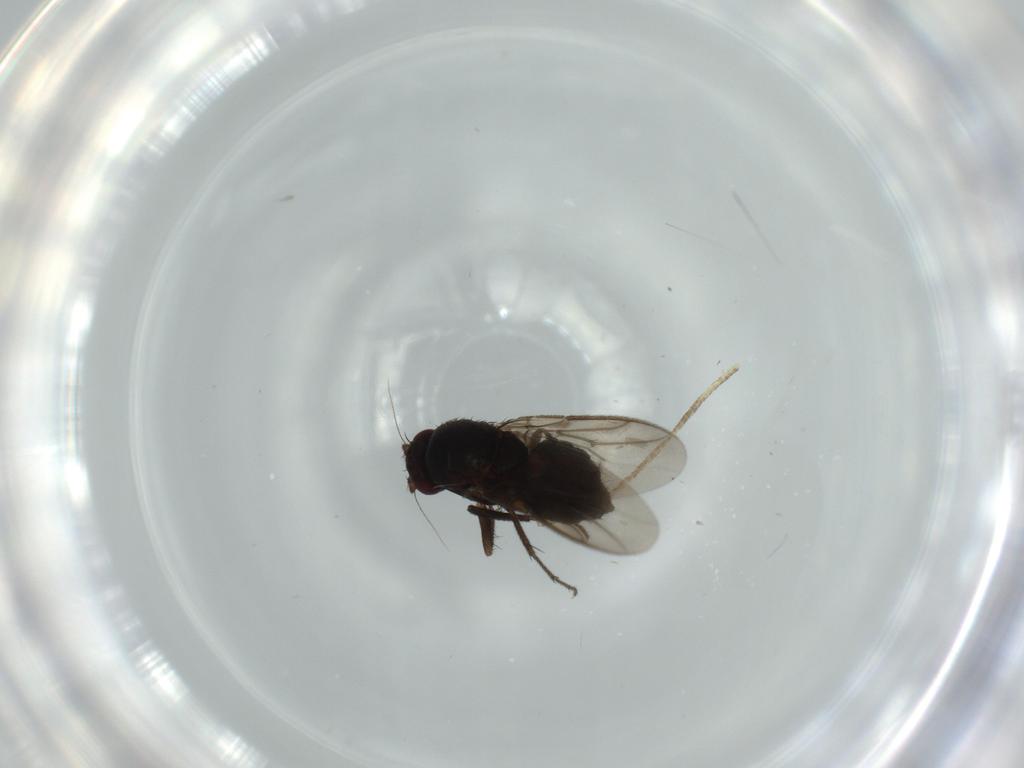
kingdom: Animalia
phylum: Arthropoda
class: Insecta
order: Diptera
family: Sphaeroceridae
